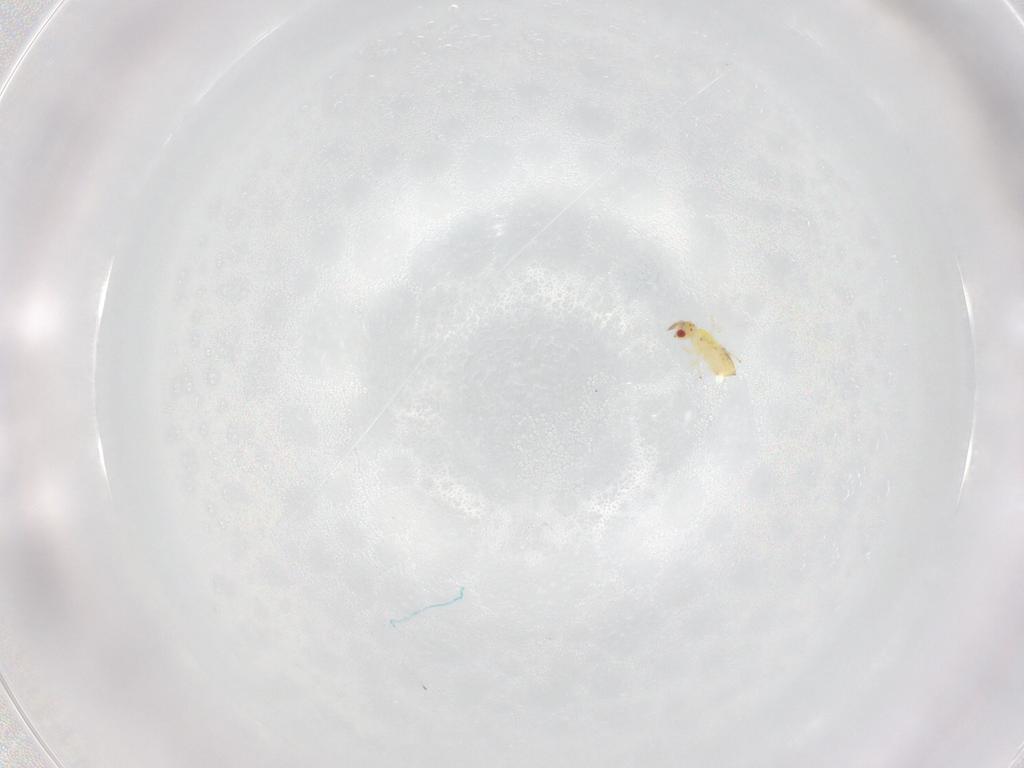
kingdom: Animalia
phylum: Arthropoda
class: Insecta
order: Hymenoptera
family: Trichogrammatidae
